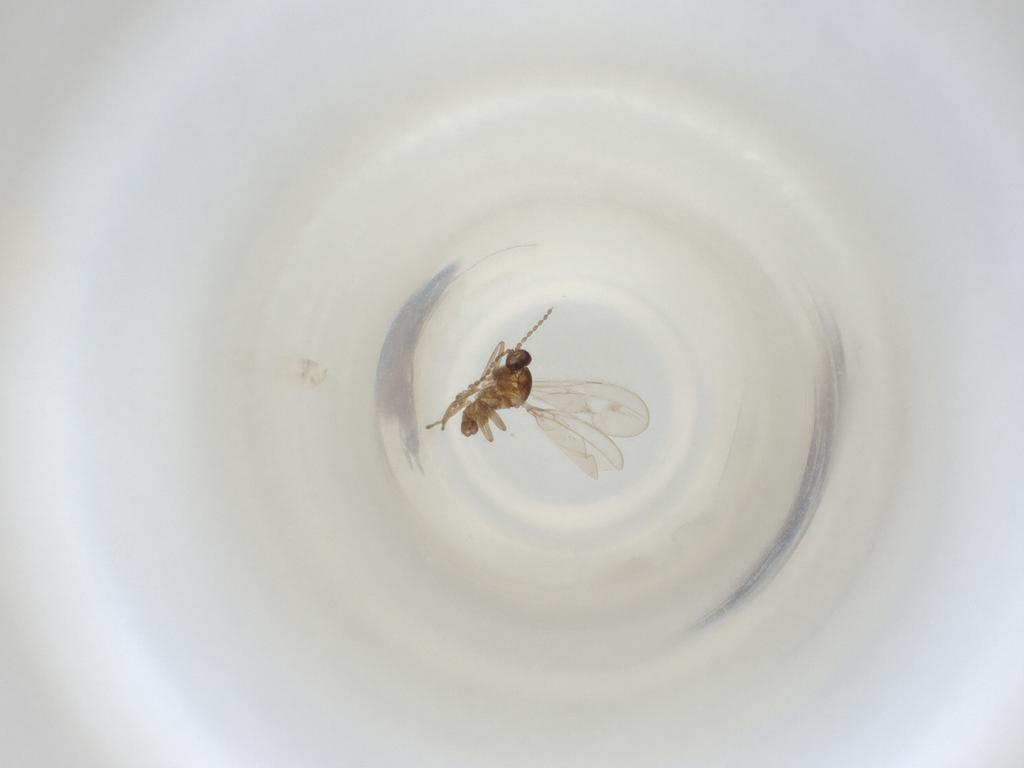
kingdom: Animalia
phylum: Arthropoda
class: Insecta
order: Diptera
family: Cecidomyiidae
